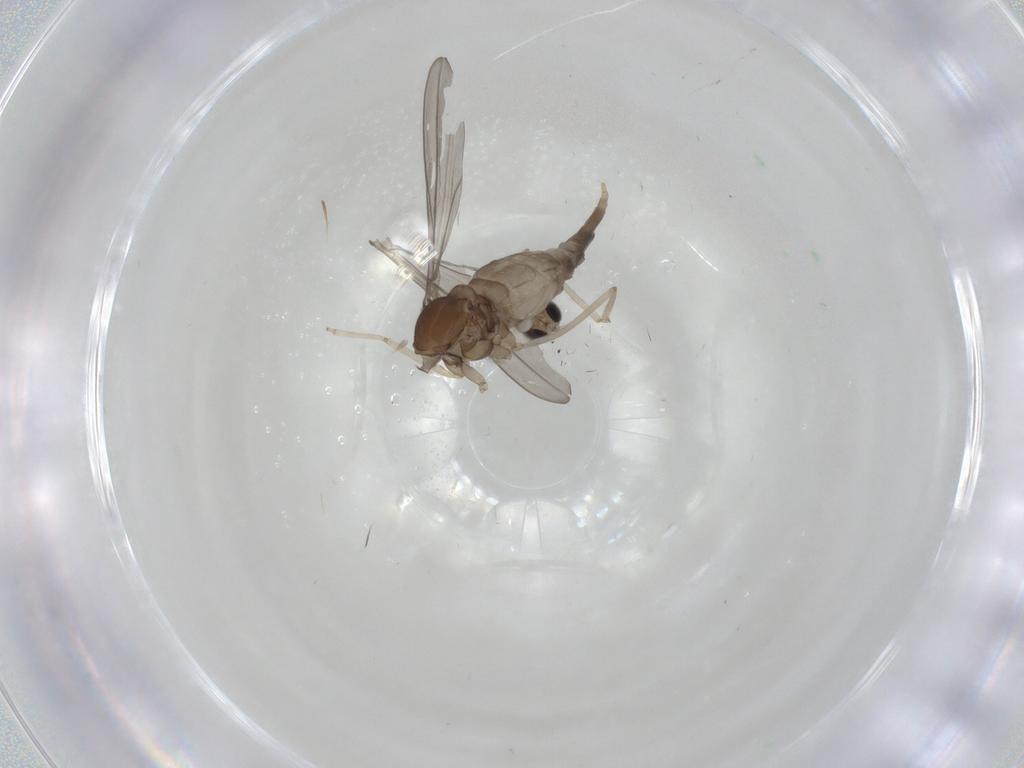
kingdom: Animalia
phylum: Arthropoda
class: Insecta
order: Diptera
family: Cecidomyiidae
